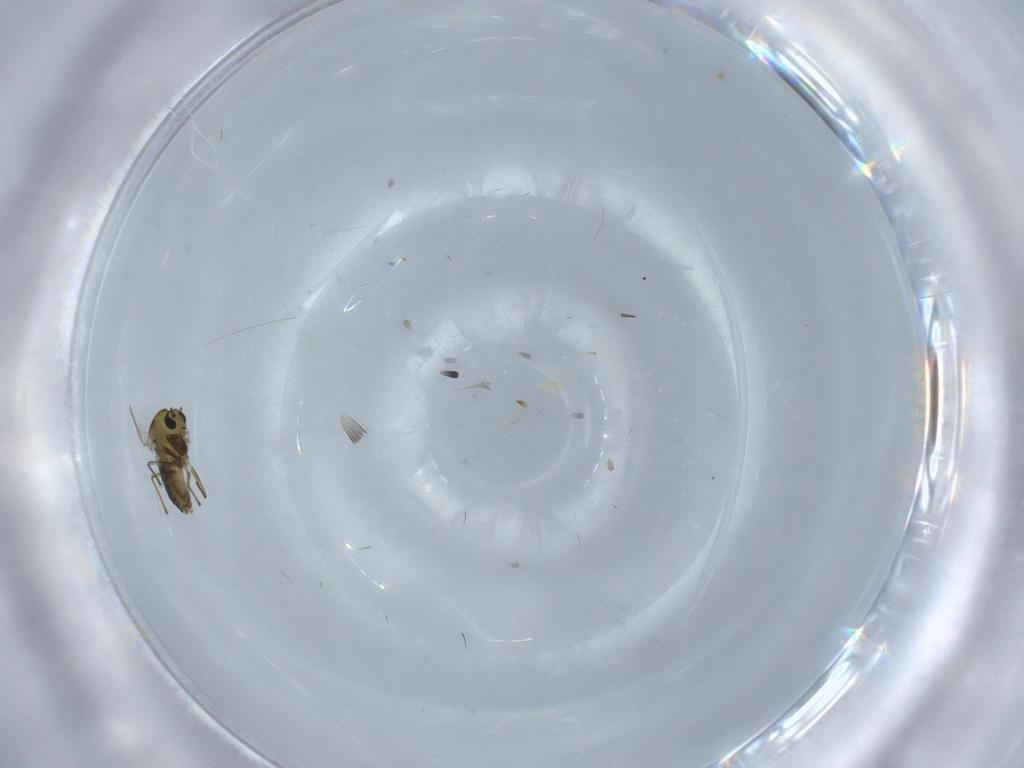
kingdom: Animalia
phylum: Arthropoda
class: Insecta
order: Diptera
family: Chironomidae
